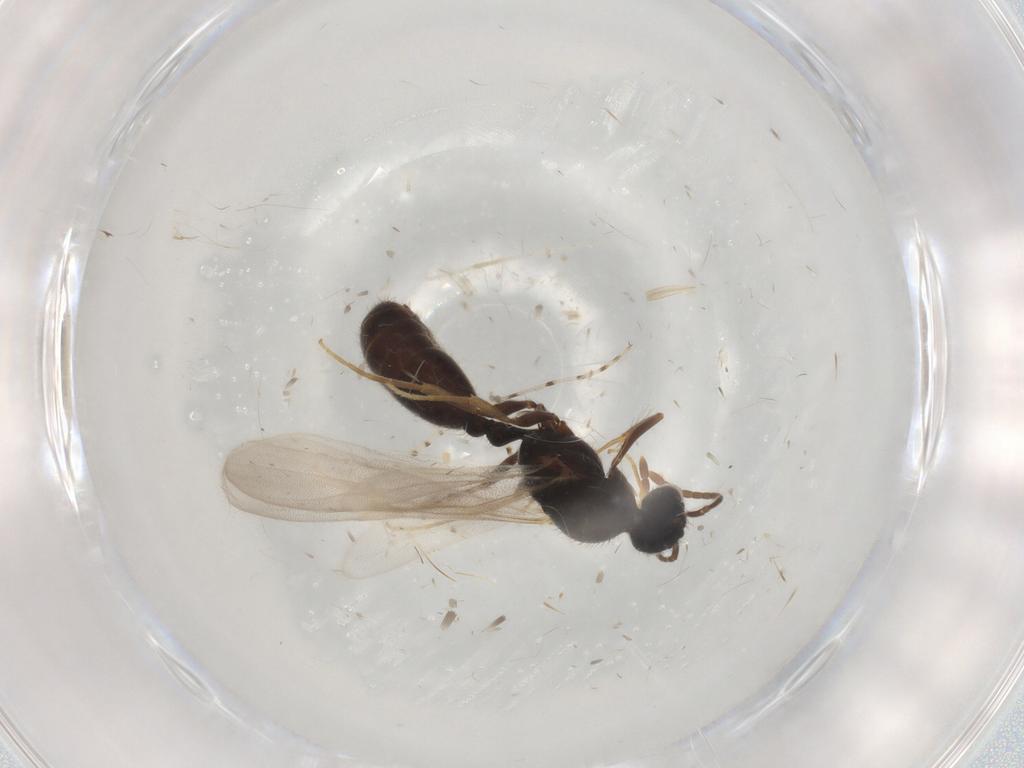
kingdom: Animalia
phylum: Arthropoda
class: Insecta
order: Hymenoptera
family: Formicidae
